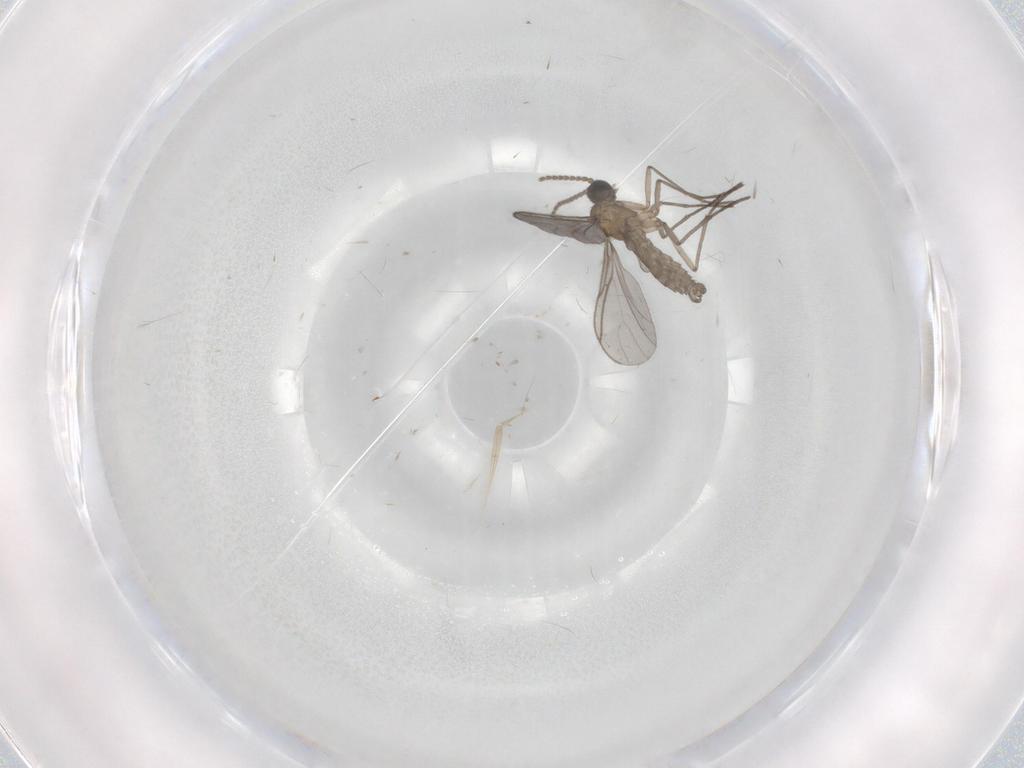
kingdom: Animalia
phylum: Arthropoda
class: Insecta
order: Diptera
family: Sciaridae
